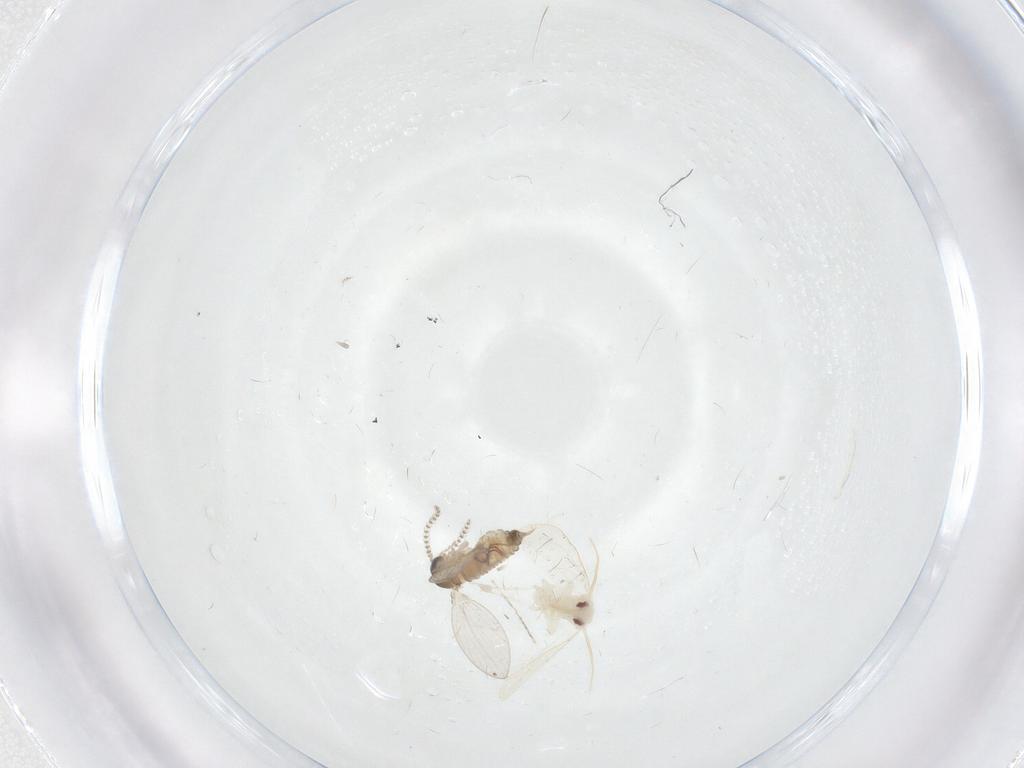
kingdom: Animalia
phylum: Arthropoda
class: Insecta
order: Hemiptera
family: Aleyrodidae
